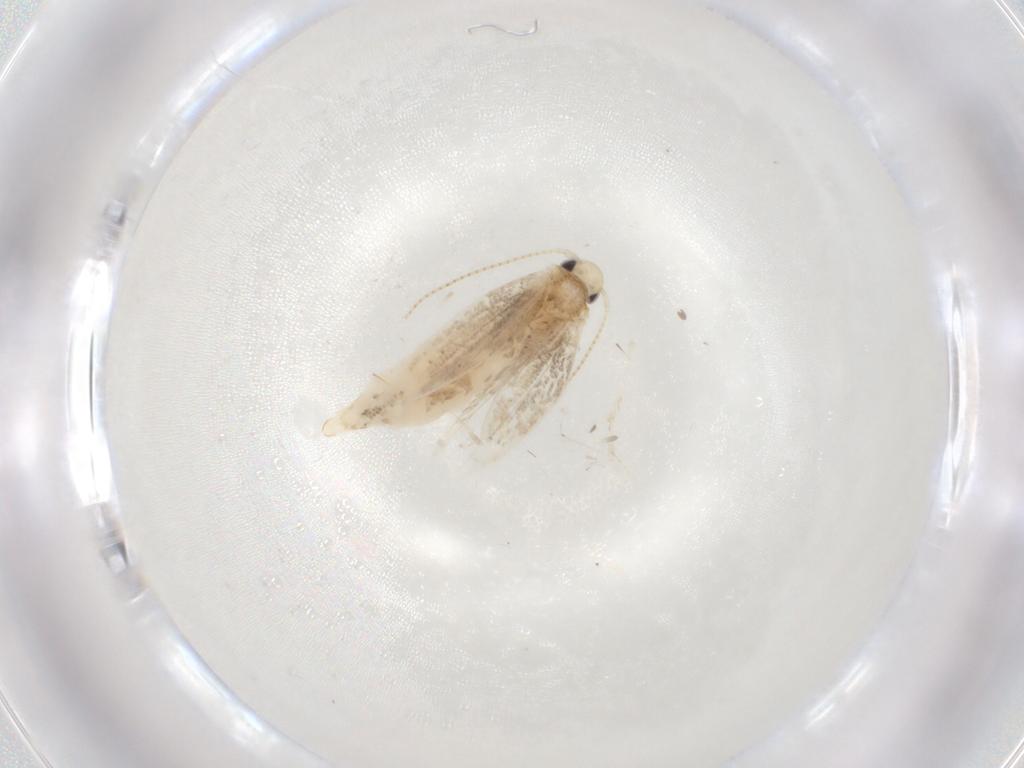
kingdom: Animalia
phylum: Arthropoda
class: Insecta
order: Lepidoptera
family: Gracillariidae
